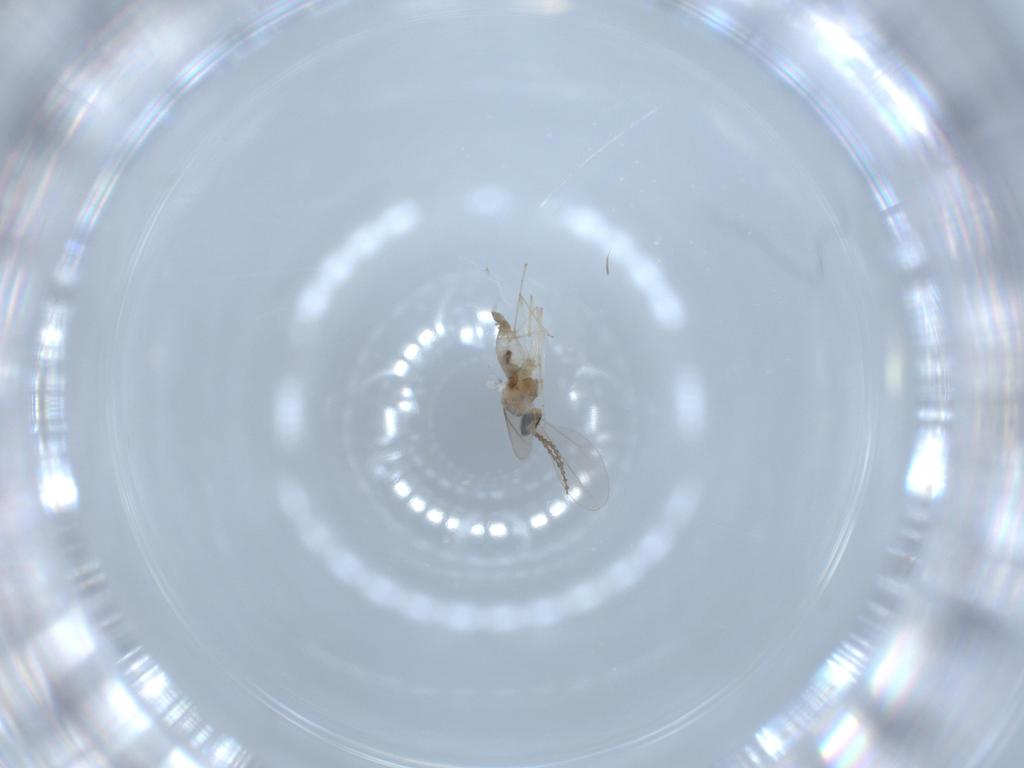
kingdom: Animalia
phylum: Arthropoda
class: Insecta
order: Diptera
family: Cecidomyiidae
